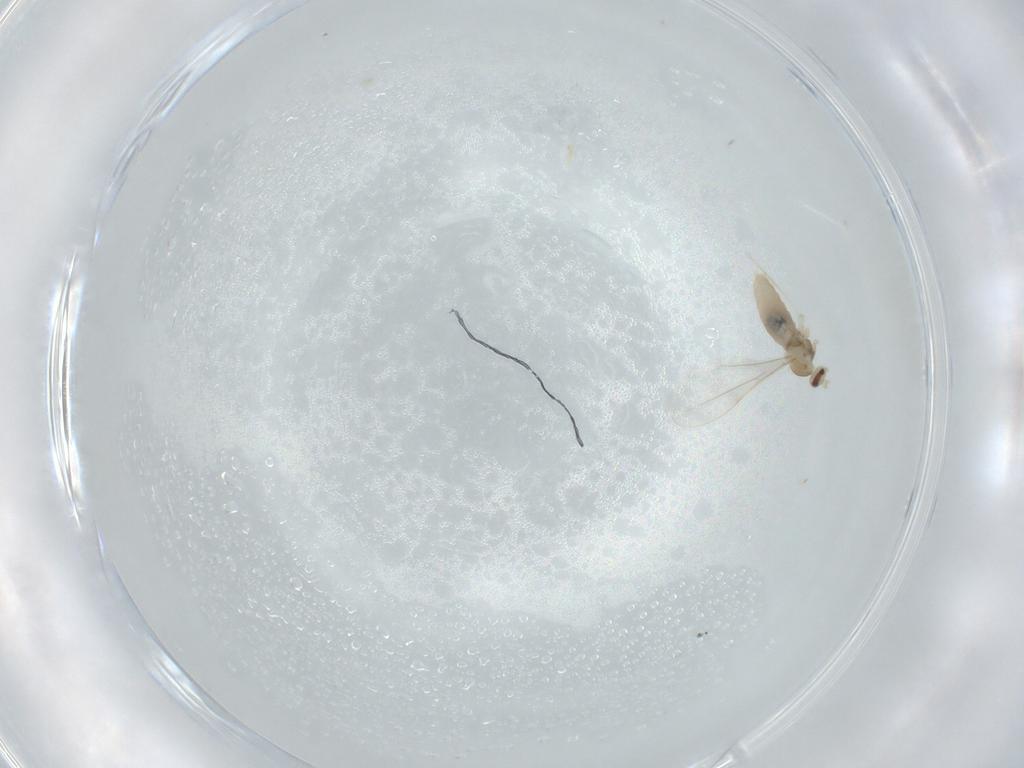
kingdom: Animalia
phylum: Arthropoda
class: Insecta
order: Diptera
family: Cecidomyiidae
